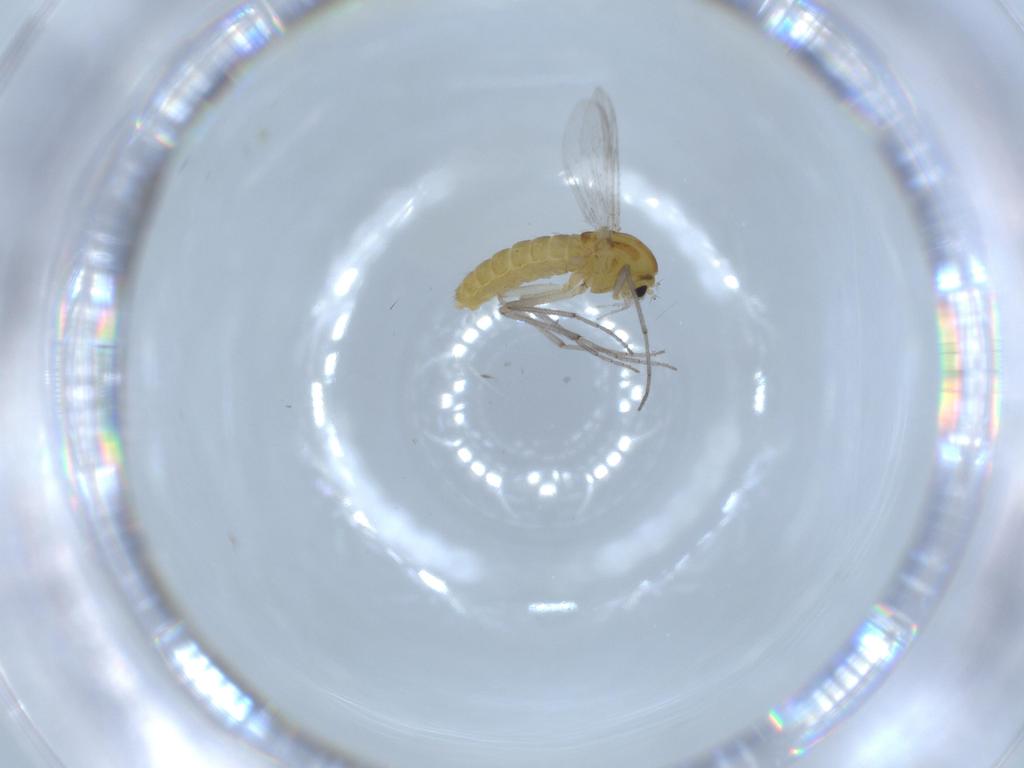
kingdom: Animalia
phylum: Arthropoda
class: Insecta
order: Diptera
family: Chironomidae
